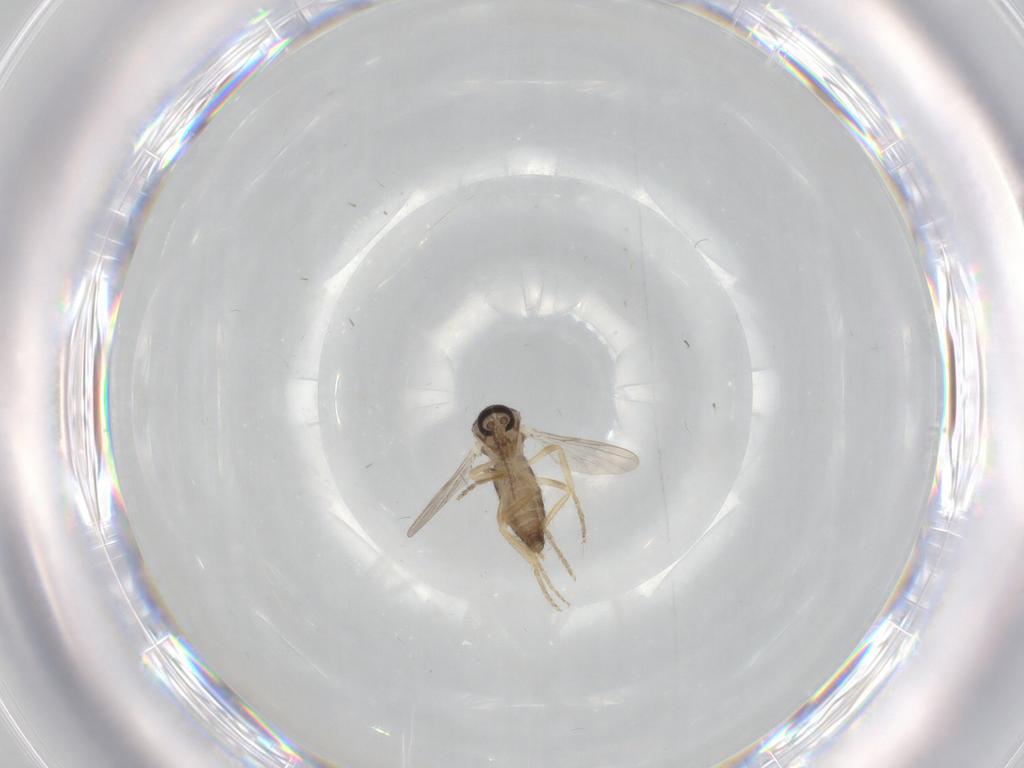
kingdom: Animalia
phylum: Arthropoda
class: Insecta
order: Diptera
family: Ceratopogonidae
